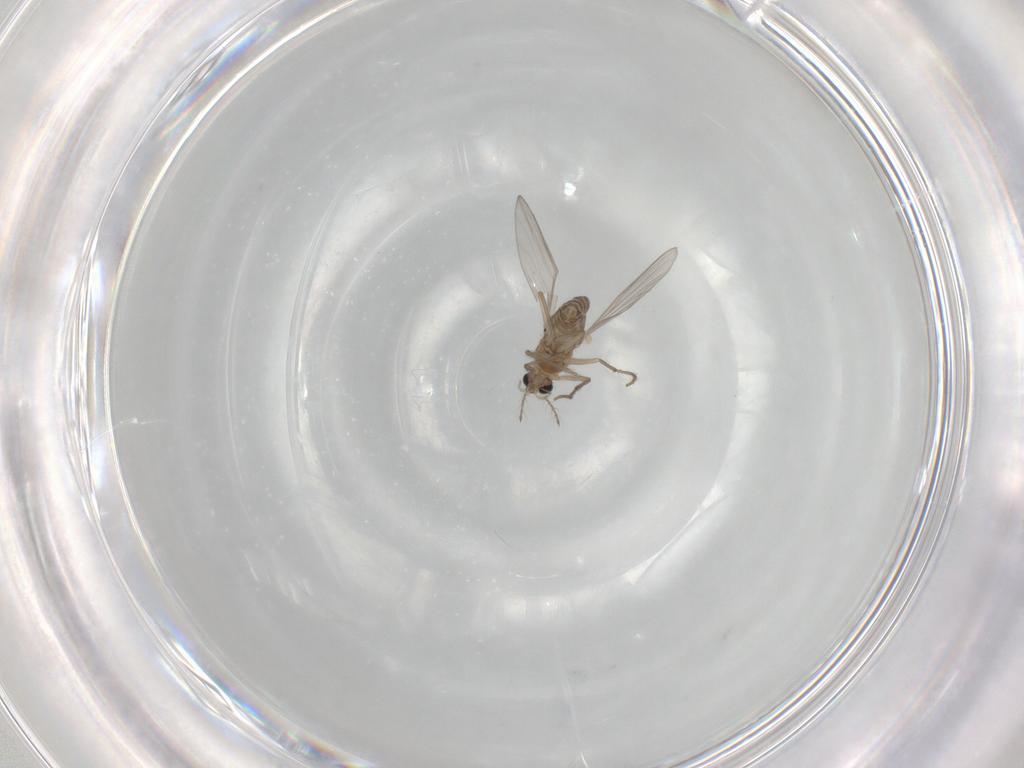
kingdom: Animalia
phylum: Arthropoda
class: Insecta
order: Diptera
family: Chironomidae
